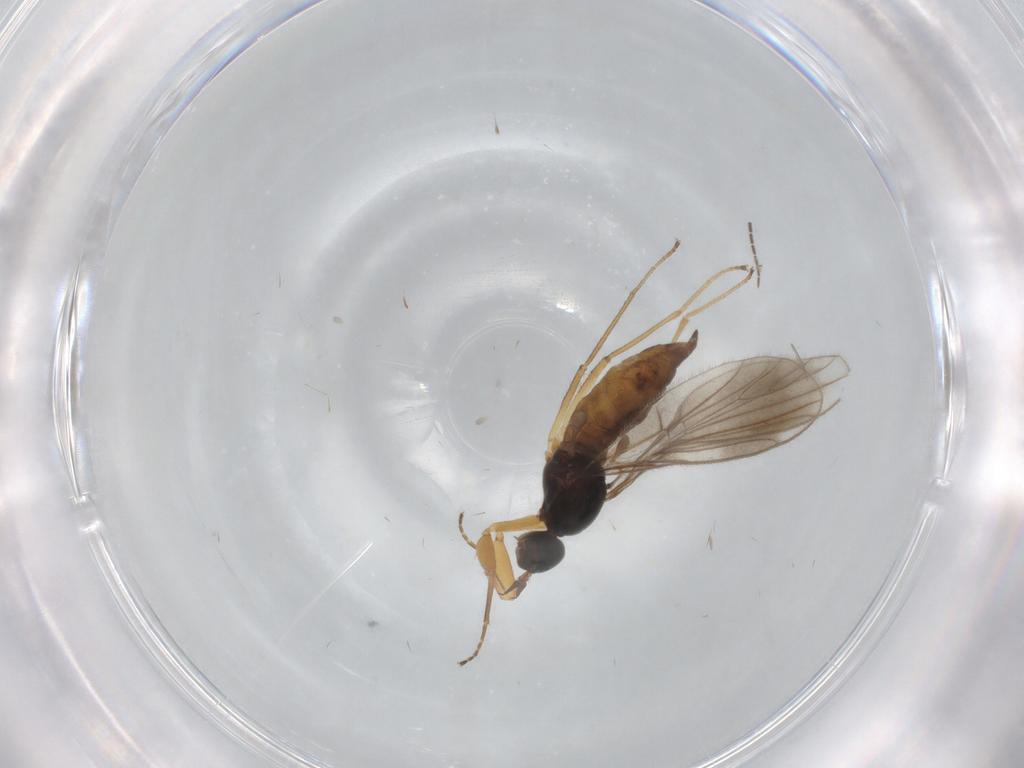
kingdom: Animalia
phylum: Arthropoda
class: Insecta
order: Diptera
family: Empididae
